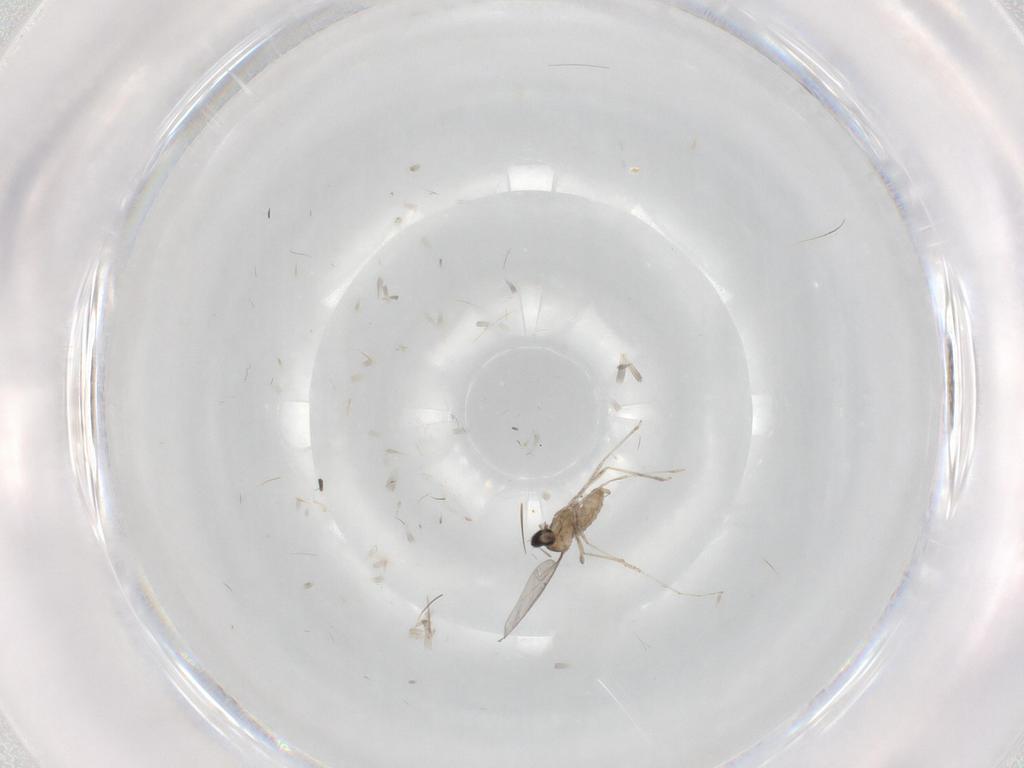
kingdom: Animalia
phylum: Arthropoda
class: Insecta
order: Diptera
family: Cecidomyiidae
